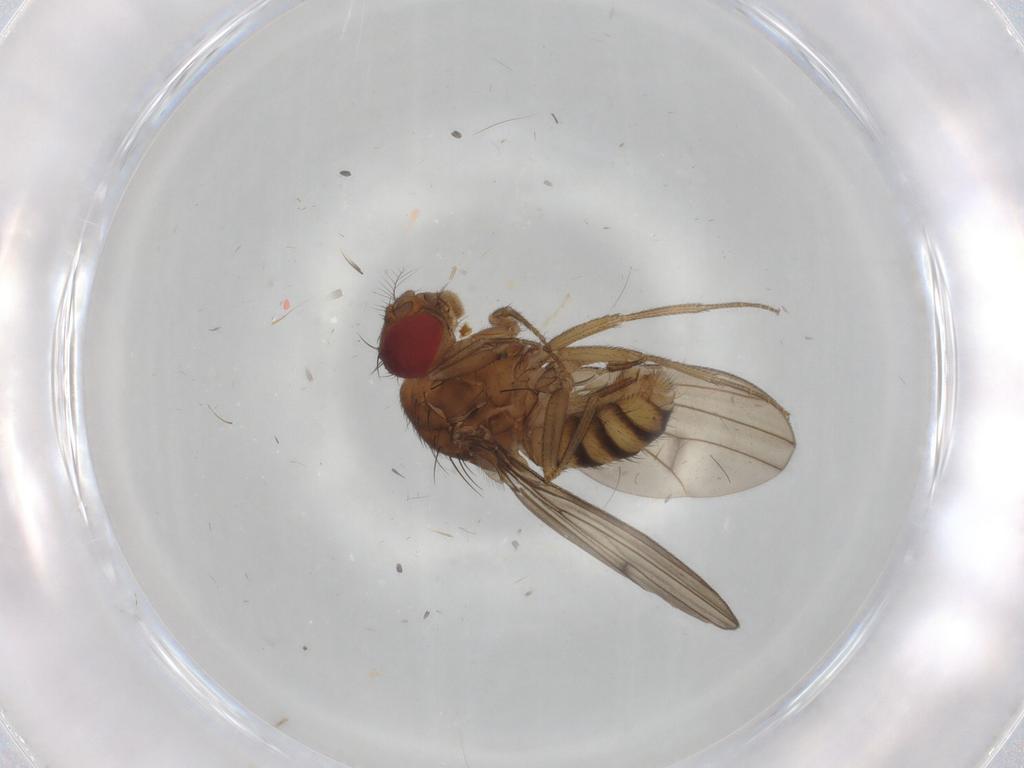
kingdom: Animalia
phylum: Arthropoda
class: Insecta
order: Diptera
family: Drosophilidae
